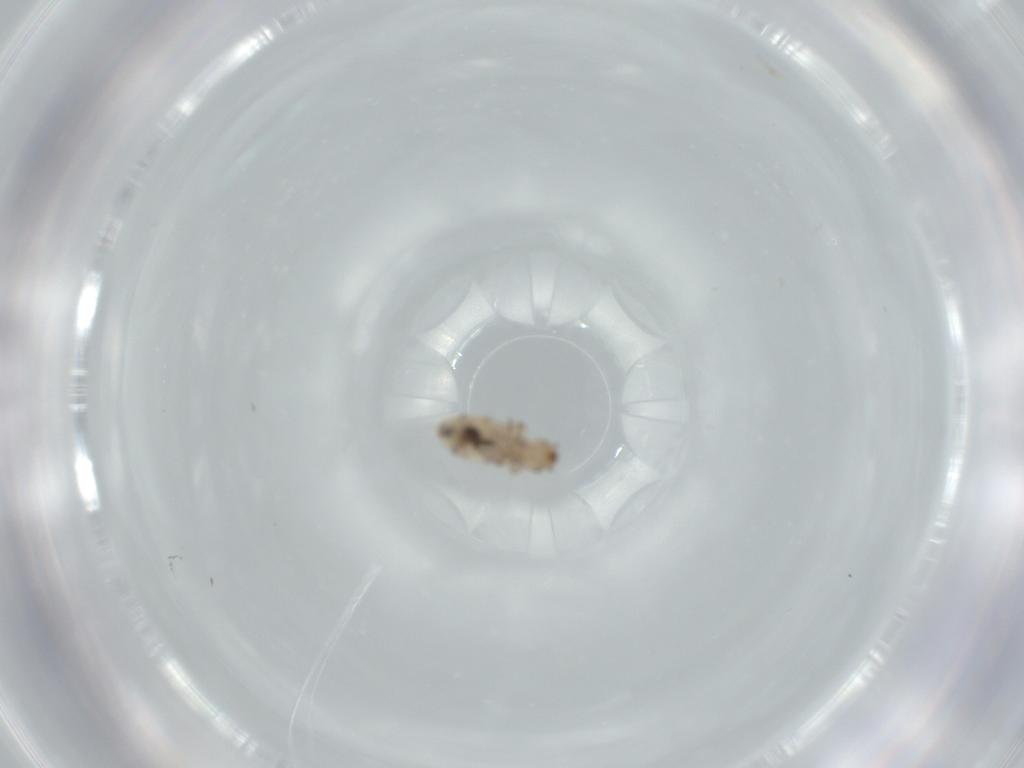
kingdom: Animalia
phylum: Arthropoda
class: Insecta
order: Psocodea
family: Liposcelididae
